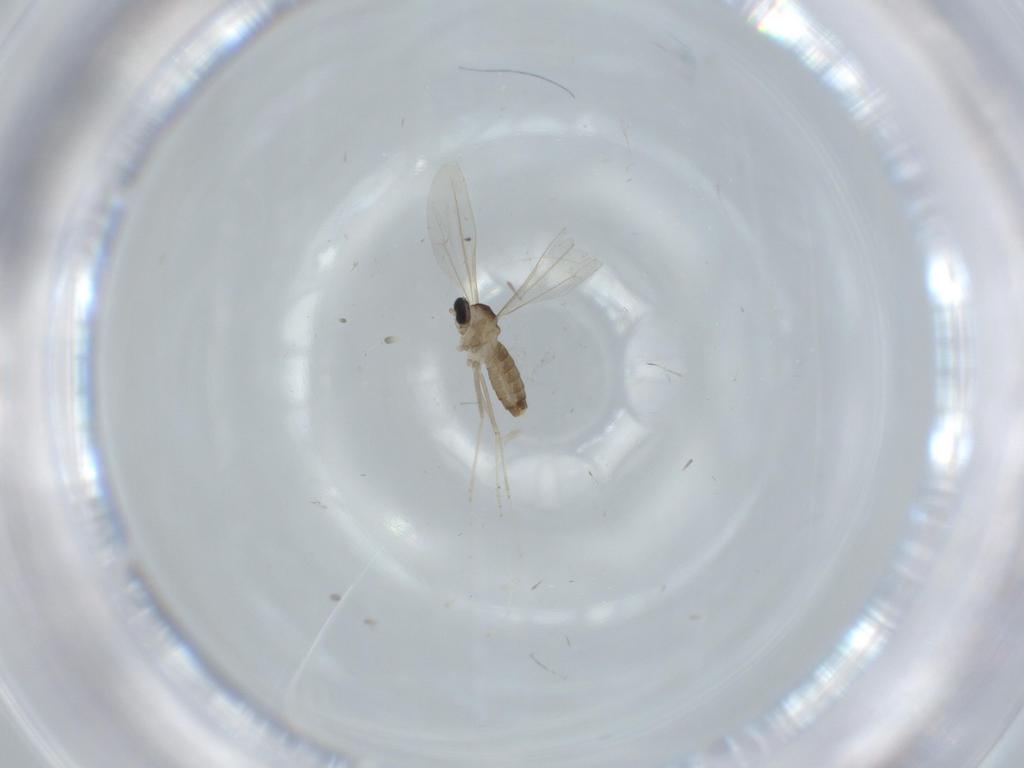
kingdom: Animalia
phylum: Arthropoda
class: Insecta
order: Diptera
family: Cecidomyiidae
